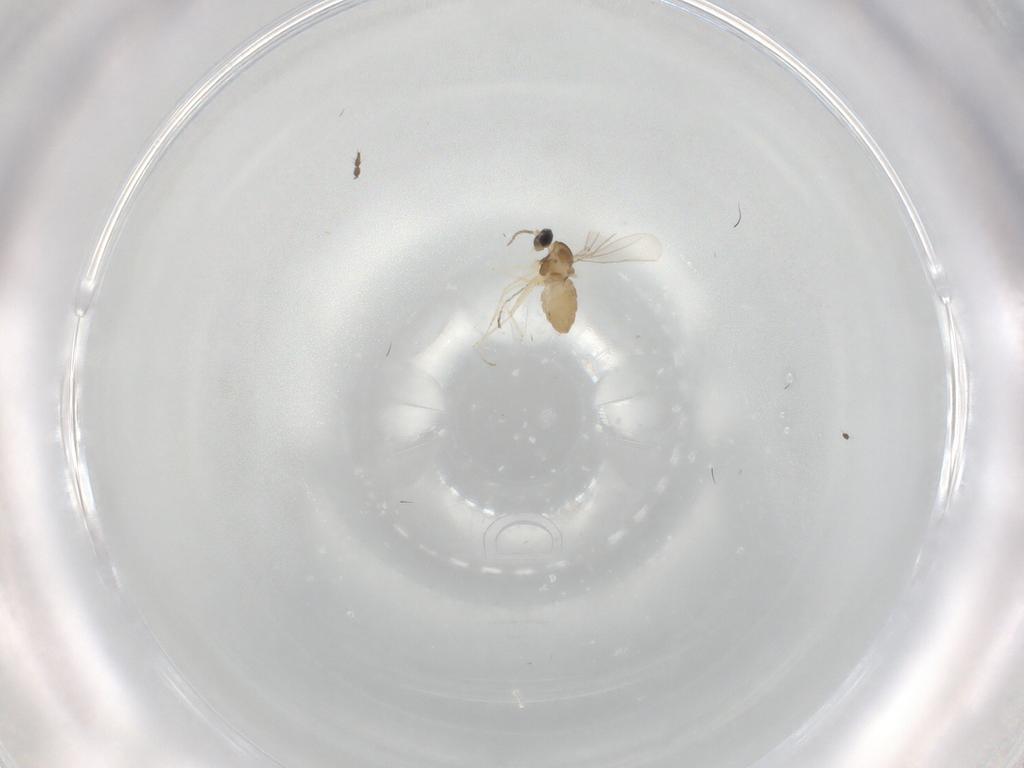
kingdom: Animalia
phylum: Arthropoda
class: Insecta
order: Diptera
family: Cecidomyiidae
